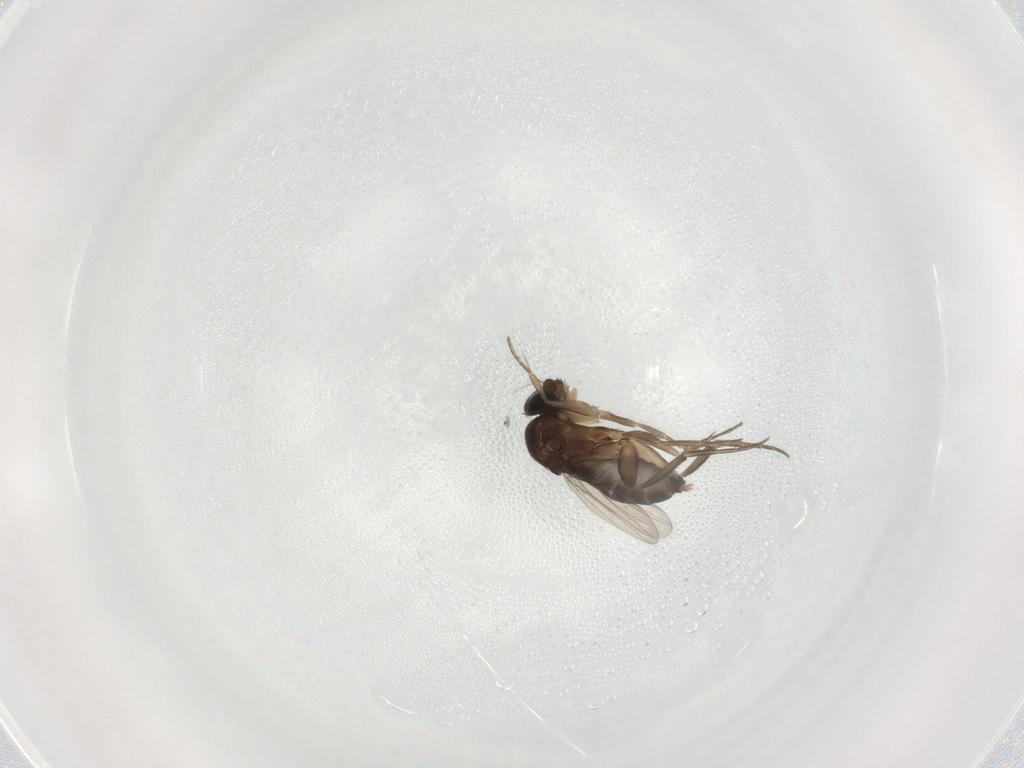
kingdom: Animalia
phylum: Arthropoda
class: Insecta
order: Diptera
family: Phoridae
